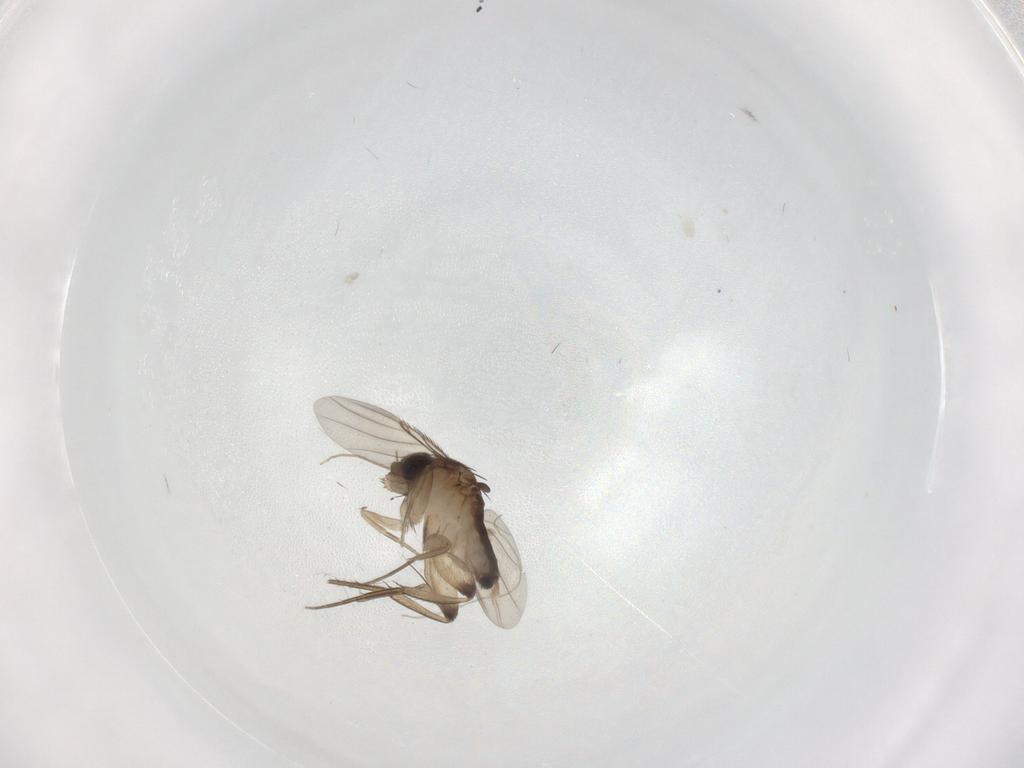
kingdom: Animalia
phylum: Arthropoda
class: Insecta
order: Diptera
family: Phoridae
